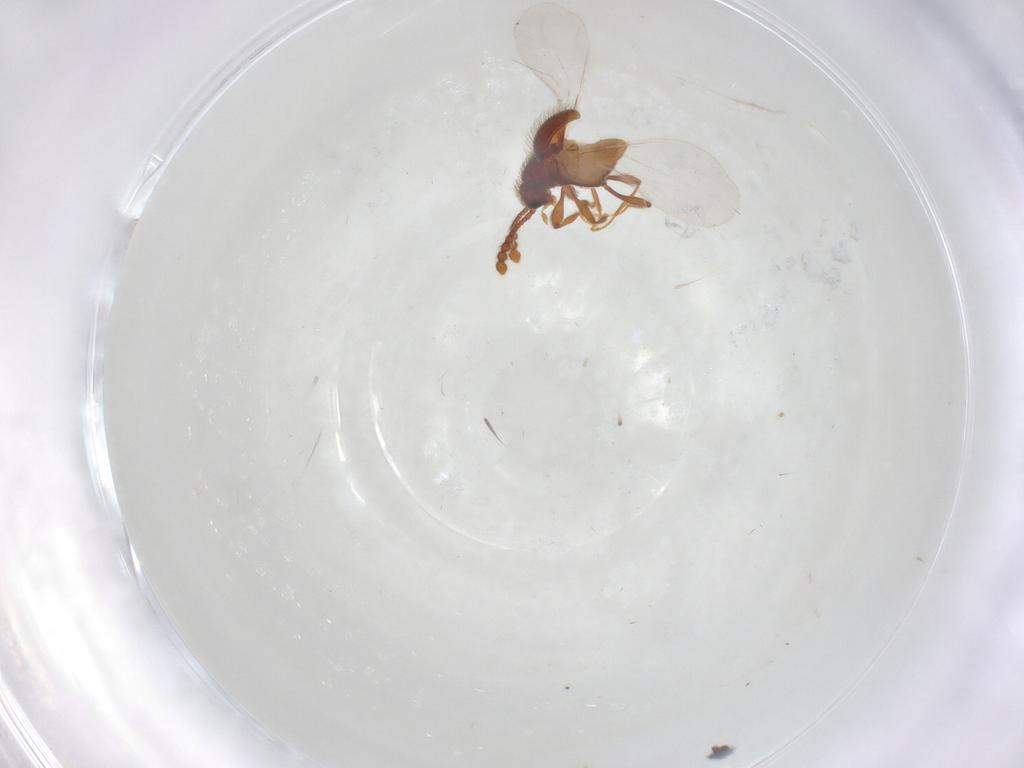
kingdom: Animalia
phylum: Arthropoda
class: Insecta
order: Coleoptera
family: Staphylinidae
